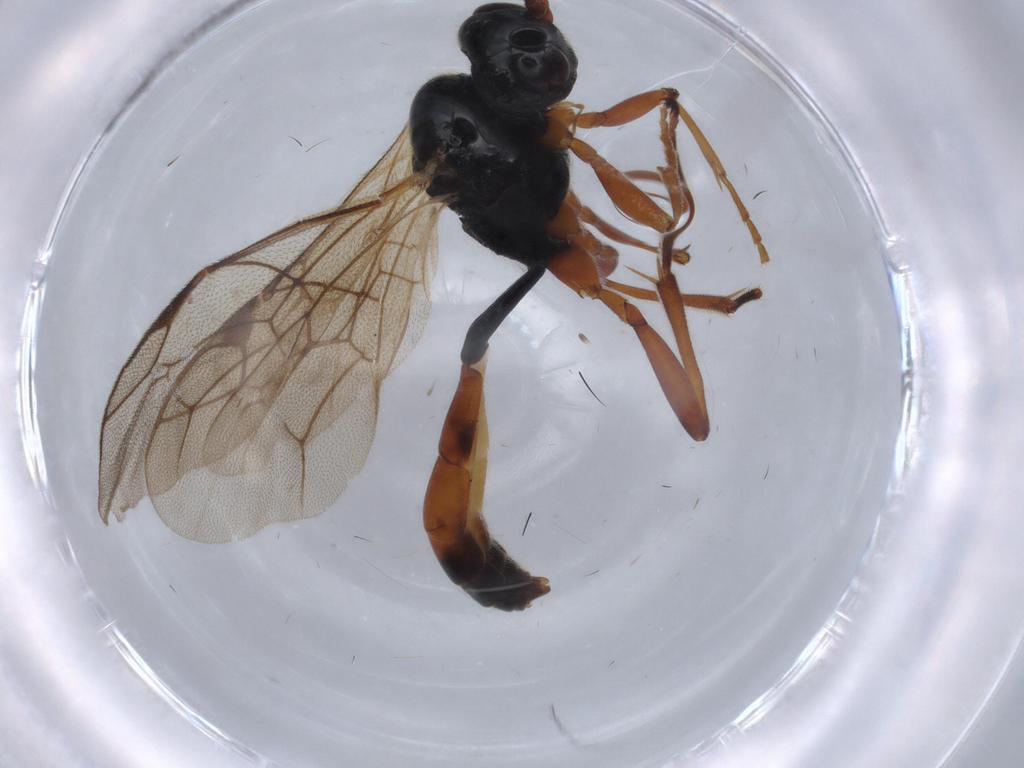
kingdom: Animalia
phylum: Arthropoda
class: Insecta
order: Hymenoptera
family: Ichneumonidae
